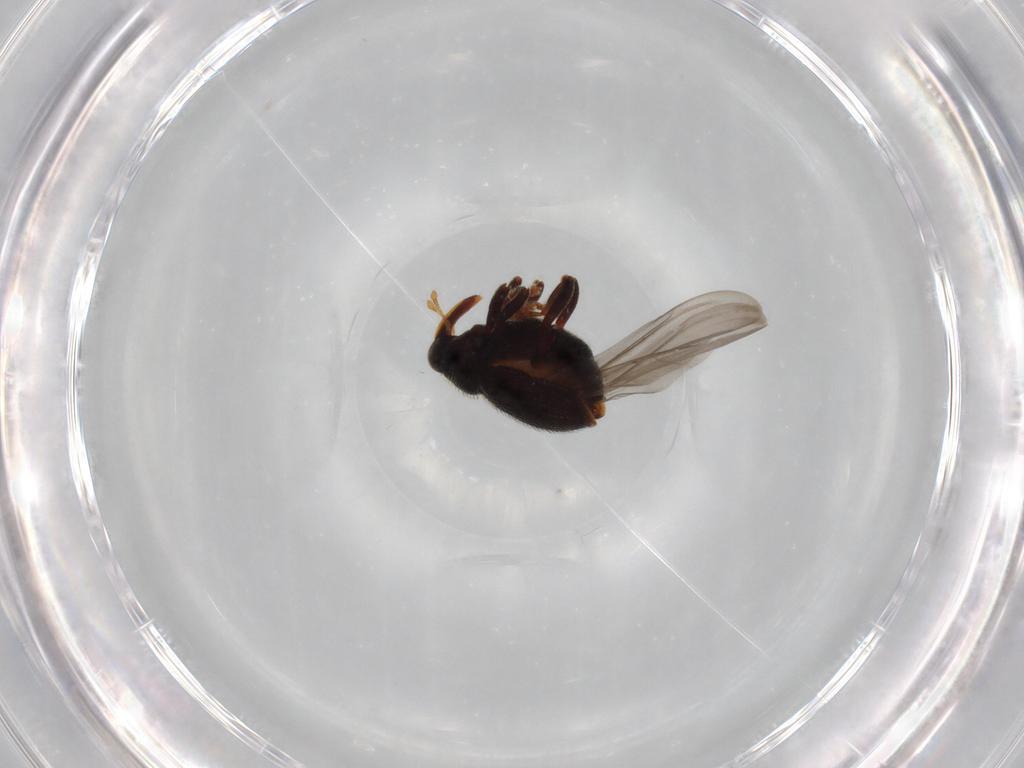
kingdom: Animalia
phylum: Arthropoda
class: Insecta
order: Coleoptera
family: Curculionidae
